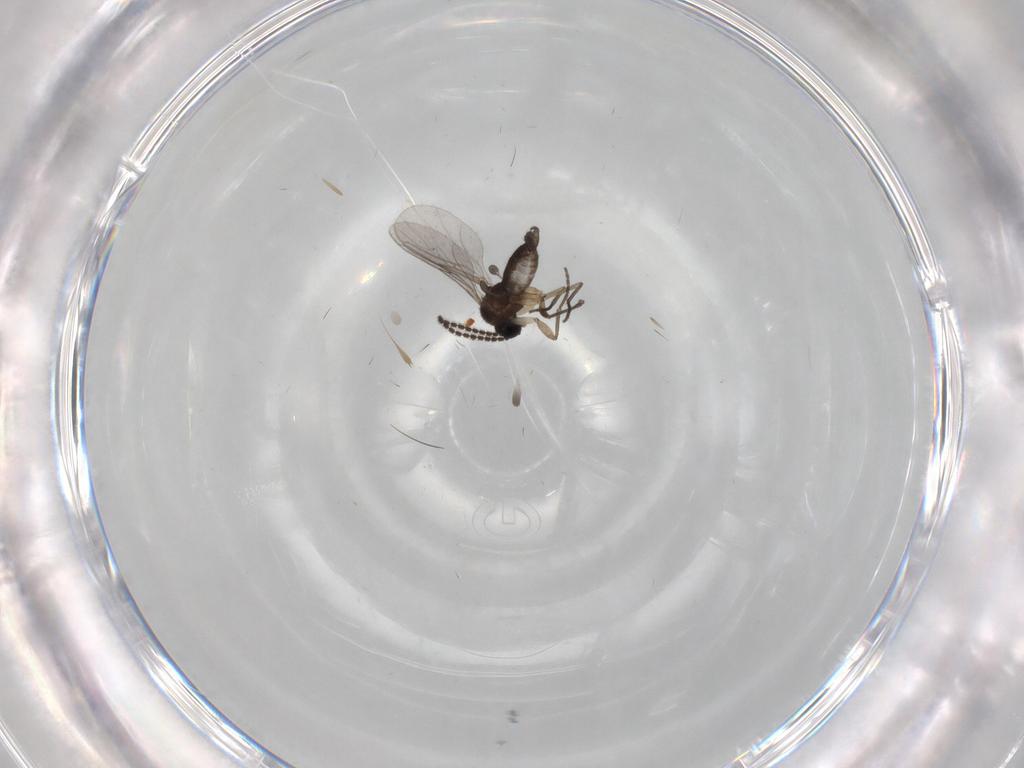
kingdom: Animalia
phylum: Arthropoda
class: Insecta
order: Diptera
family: Sciaridae
